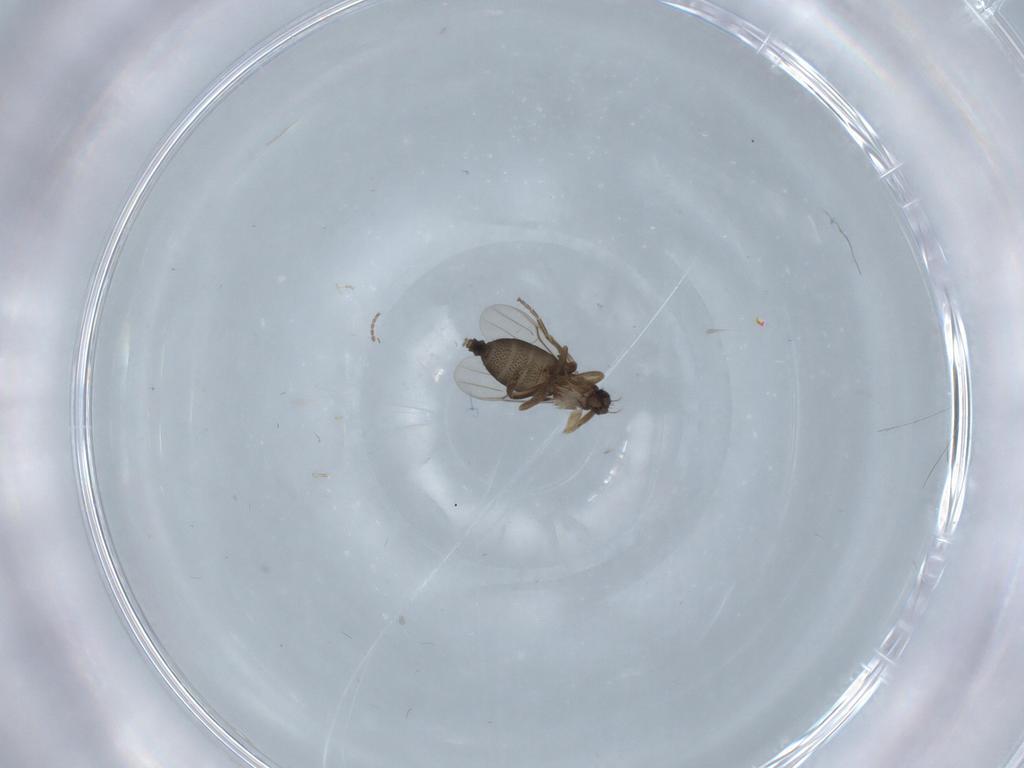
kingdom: Animalia
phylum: Arthropoda
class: Insecta
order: Diptera
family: Phoridae
